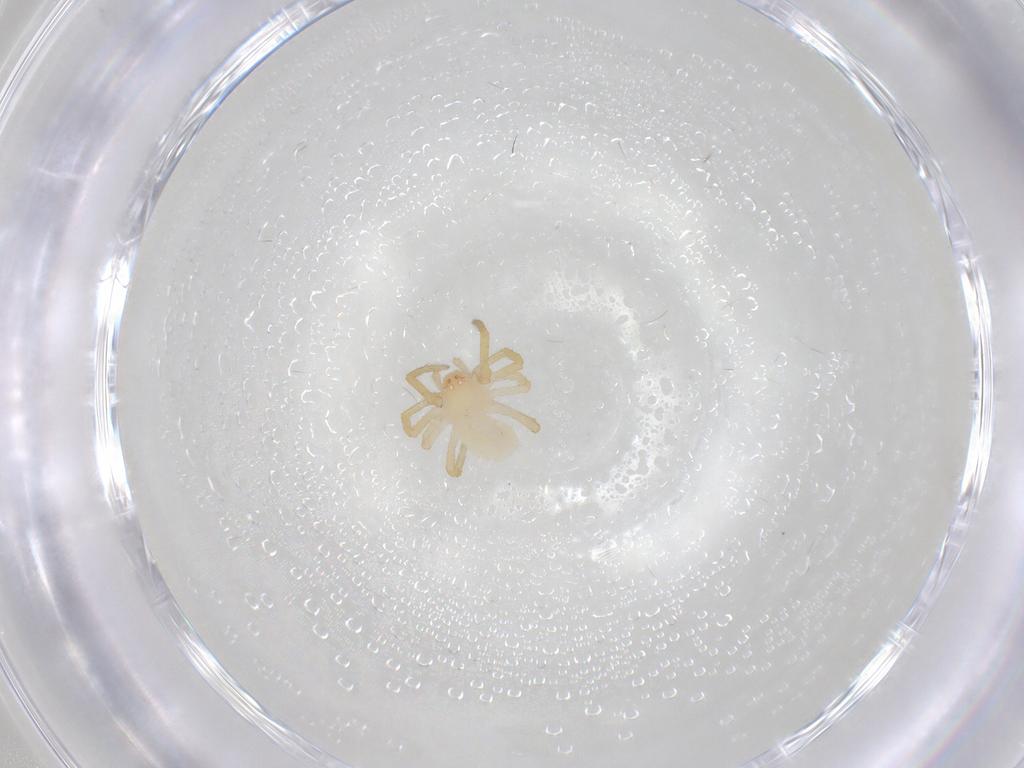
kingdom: Animalia
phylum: Arthropoda
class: Arachnida
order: Araneae
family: Theridiidae
